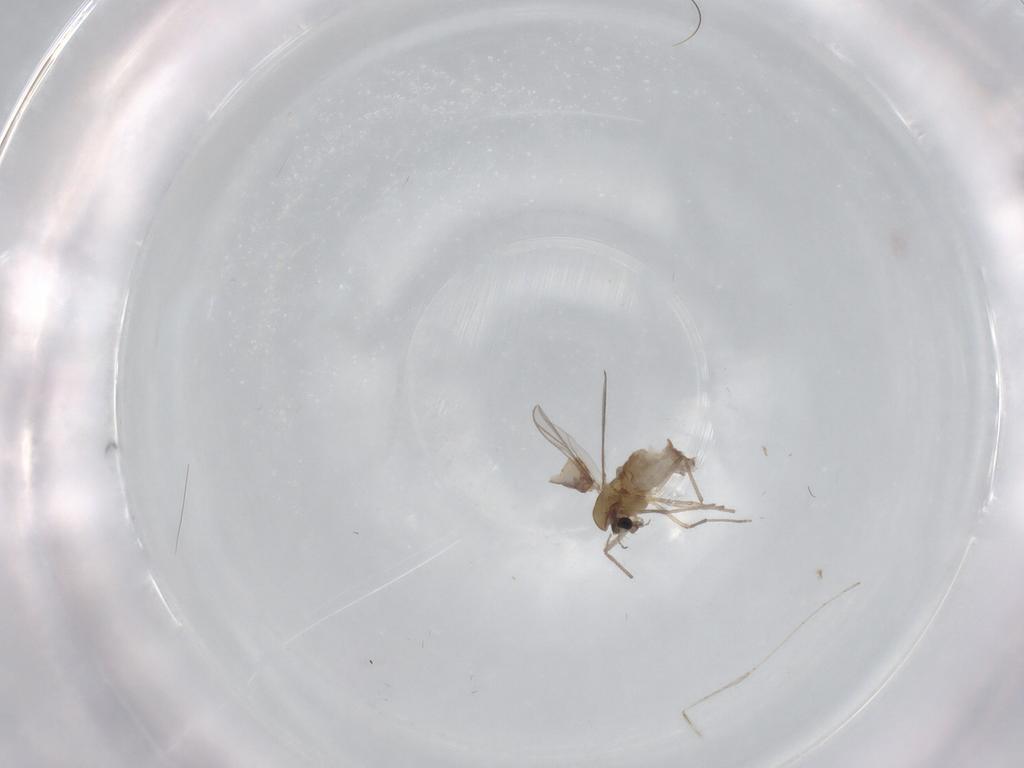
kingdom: Animalia
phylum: Arthropoda
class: Insecta
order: Diptera
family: Chironomidae
